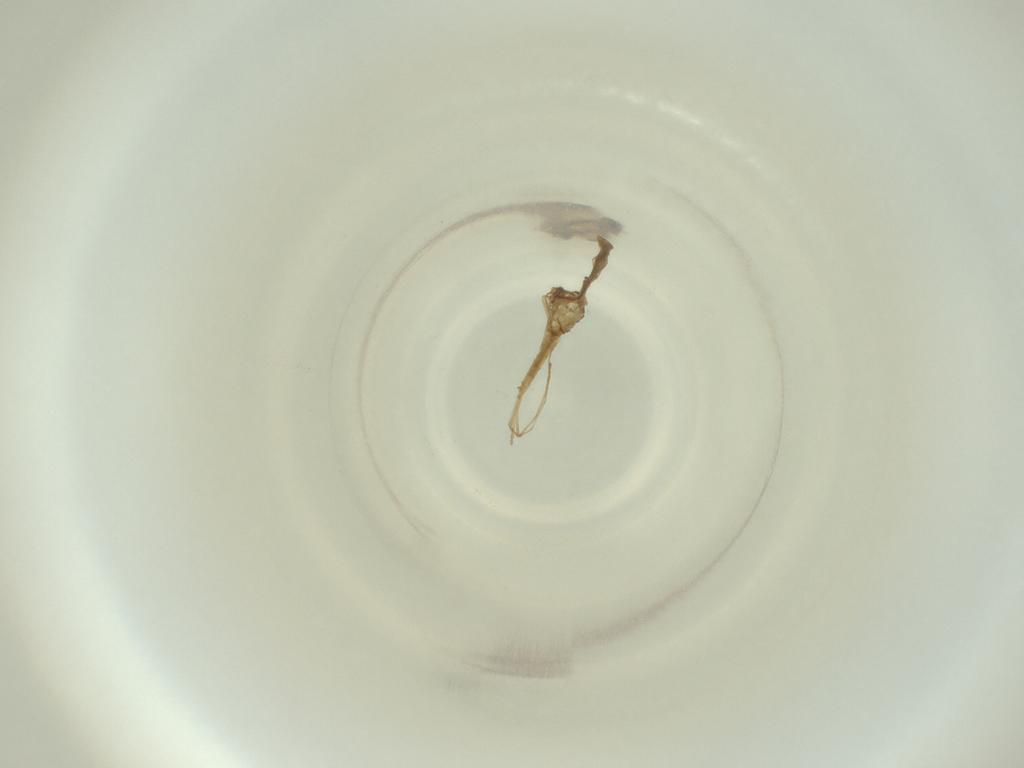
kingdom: Animalia
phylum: Arthropoda
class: Insecta
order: Diptera
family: Cecidomyiidae
